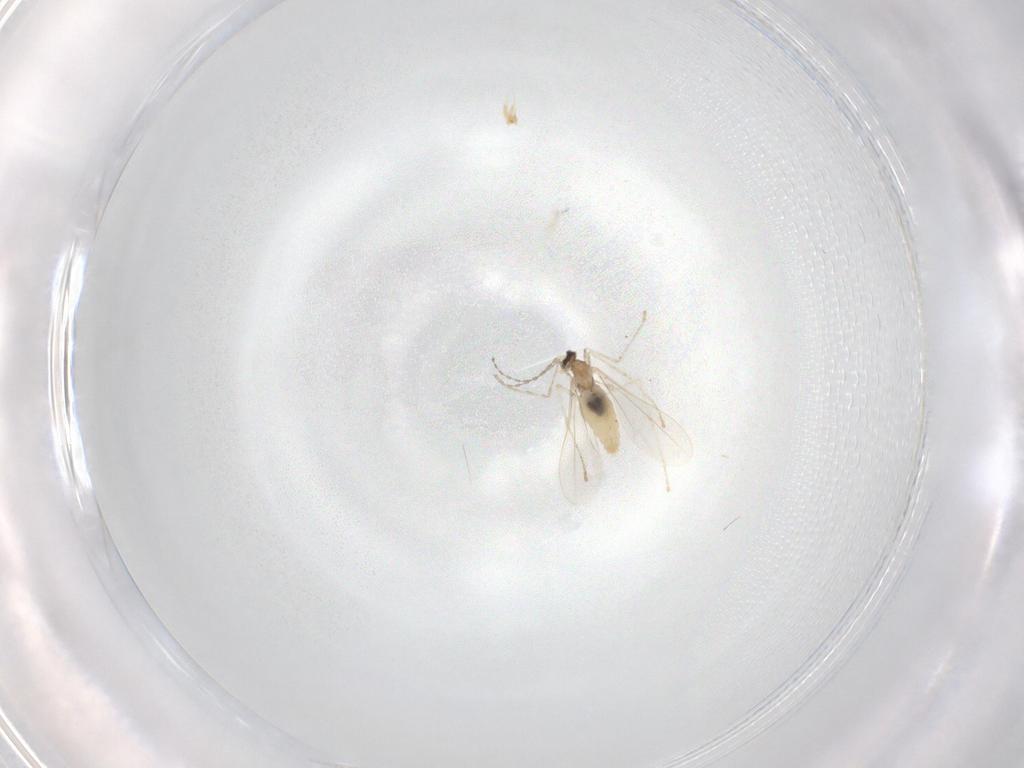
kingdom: Animalia
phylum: Arthropoda
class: Insecta
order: Diptera
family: Cecidomyiidae
